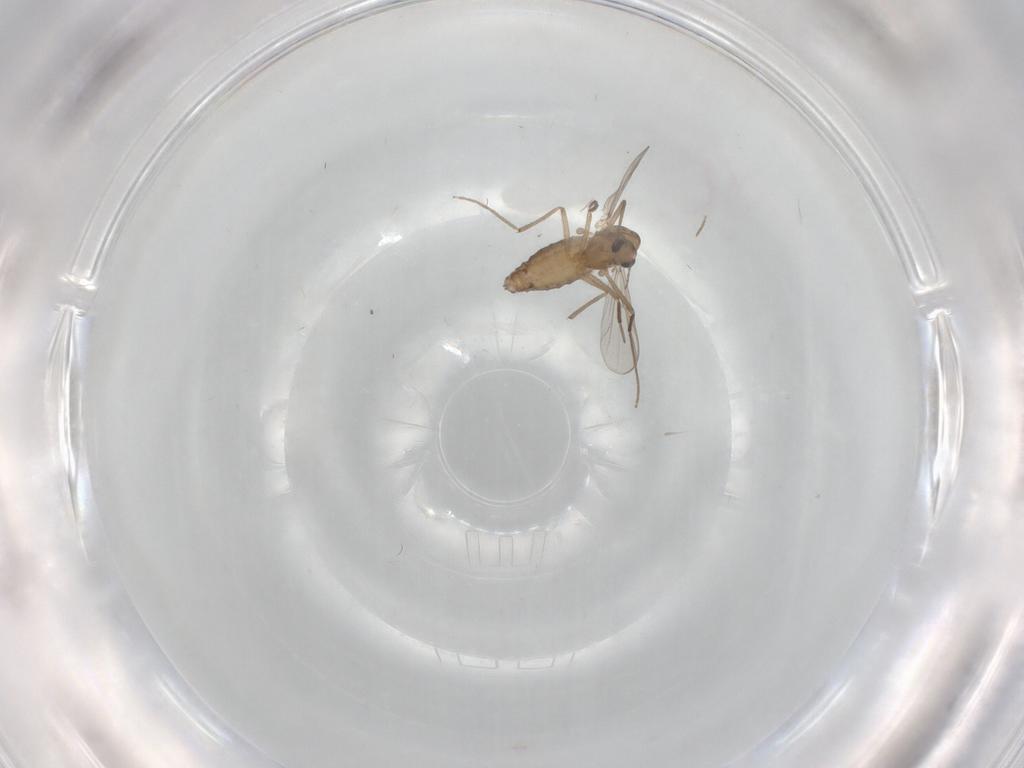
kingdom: Animalia
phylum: Arthropoda
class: Insecta
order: Diptera
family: Chironomidae
